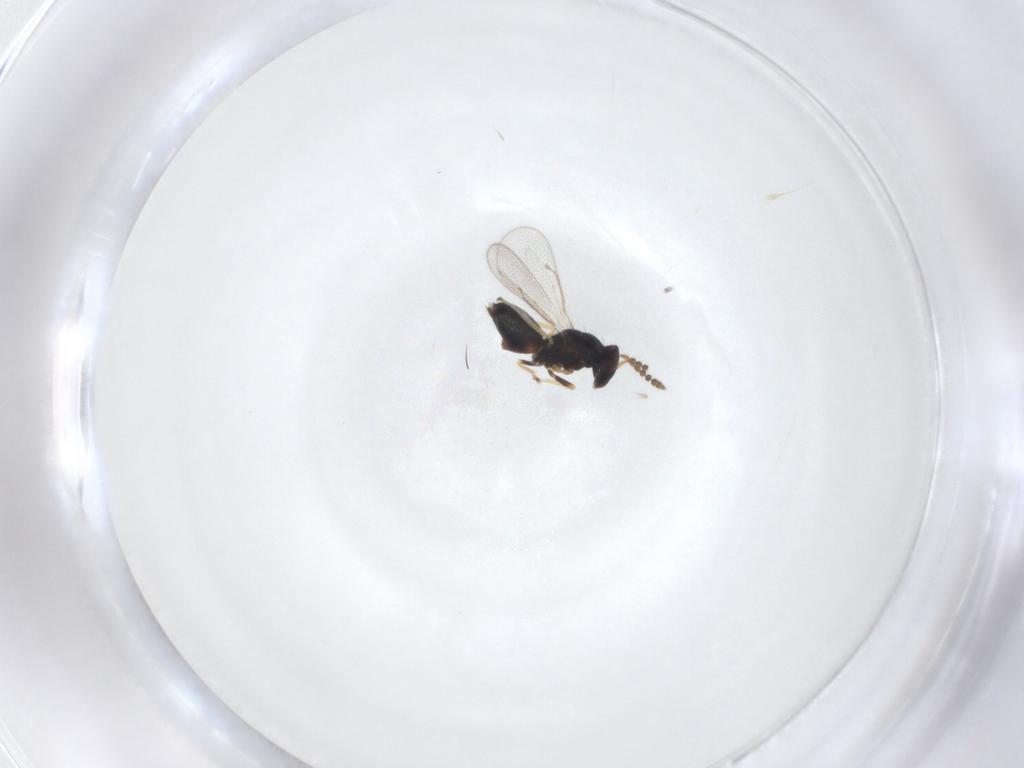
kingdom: Animalia
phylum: Arthropoda
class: Insecta
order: Hymenoptera
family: Eulophidae
